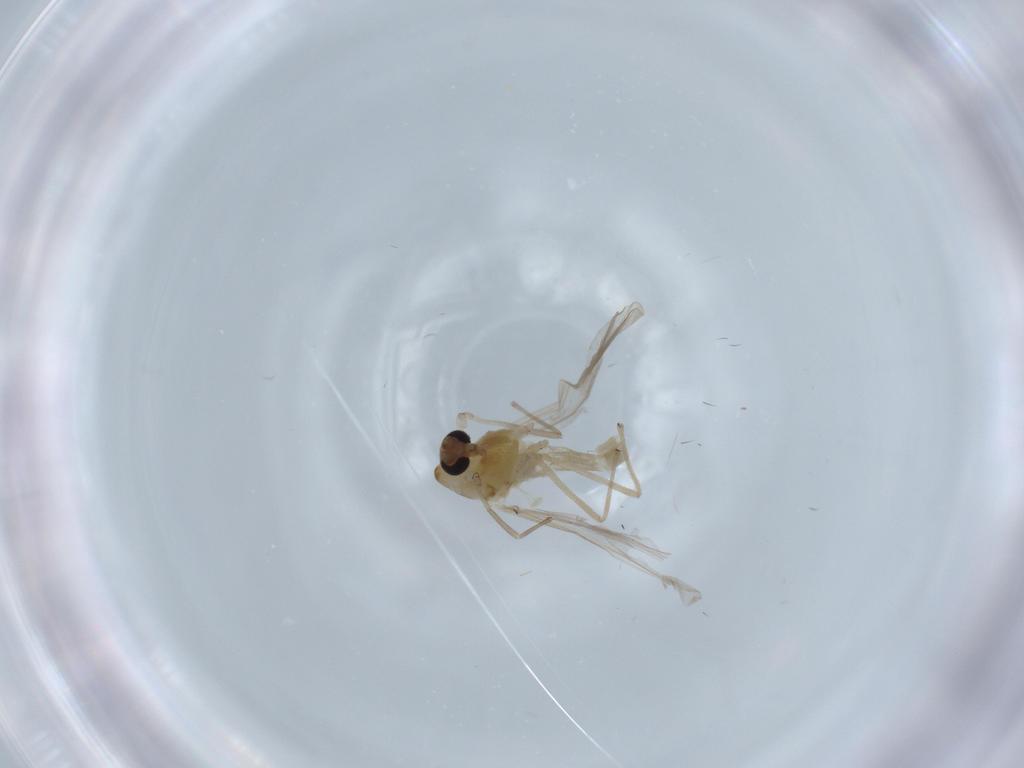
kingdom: Animalia
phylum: Arthropoda
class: Insecta
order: Diptera
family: Chironomidae
